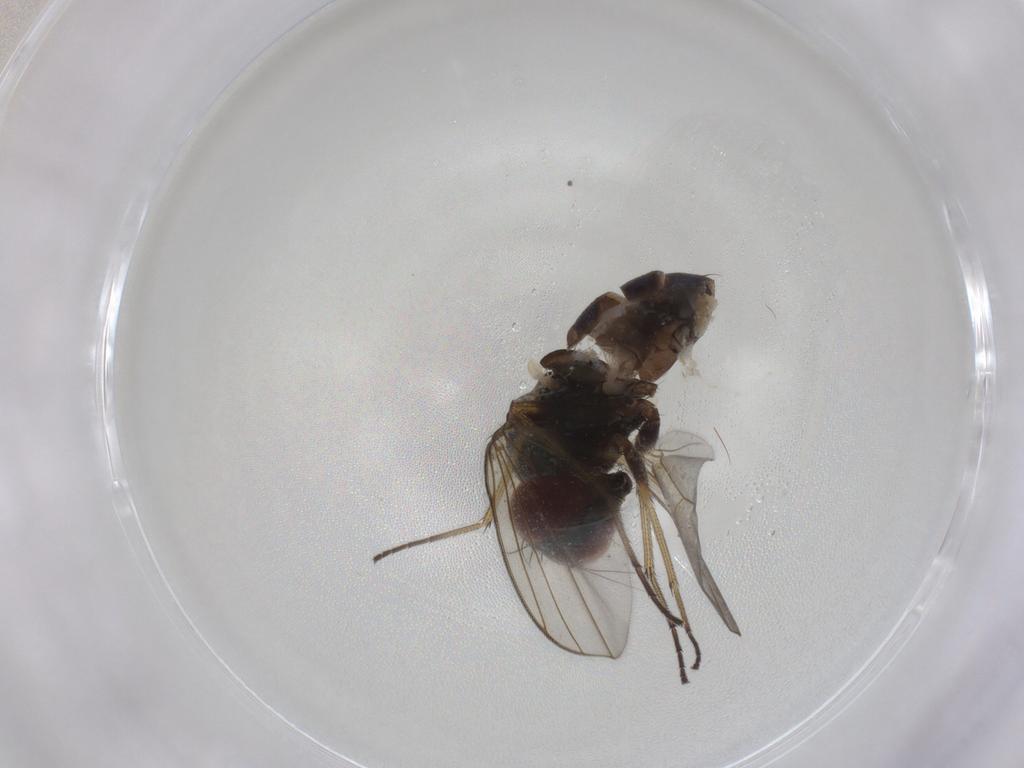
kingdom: Animalia
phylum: Arthropoda
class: Insecta
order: Diptera
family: Dolichopodidae
